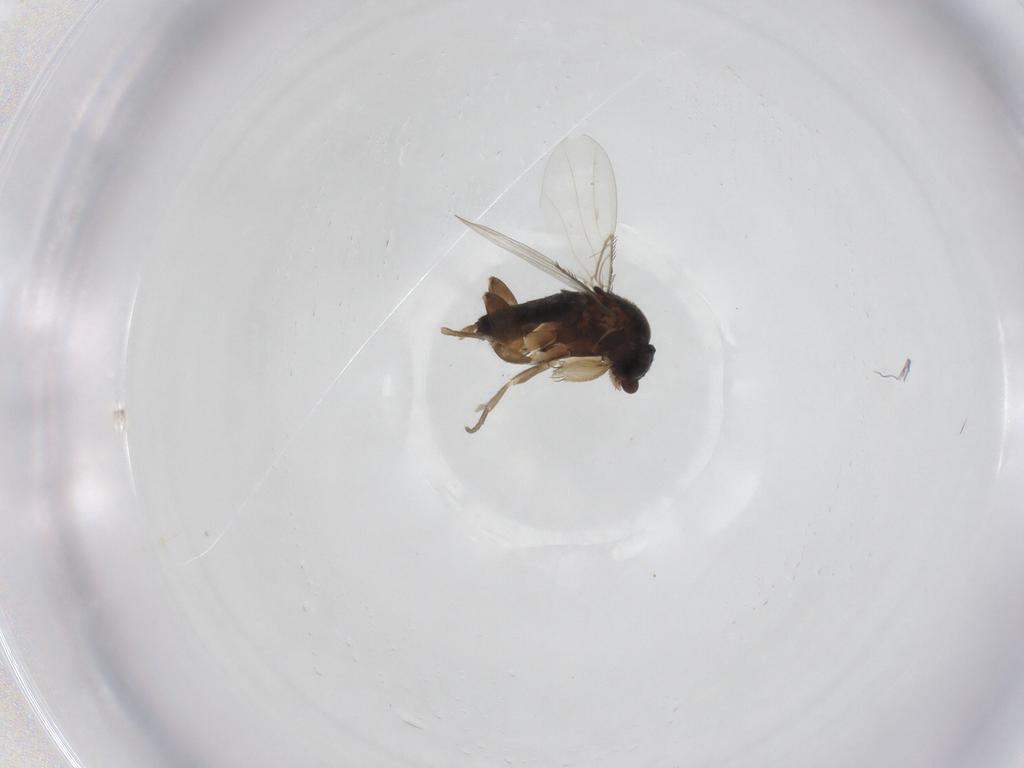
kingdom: Animalia
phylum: Arthropoda
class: Insecta
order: Diptera
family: Phoridae
